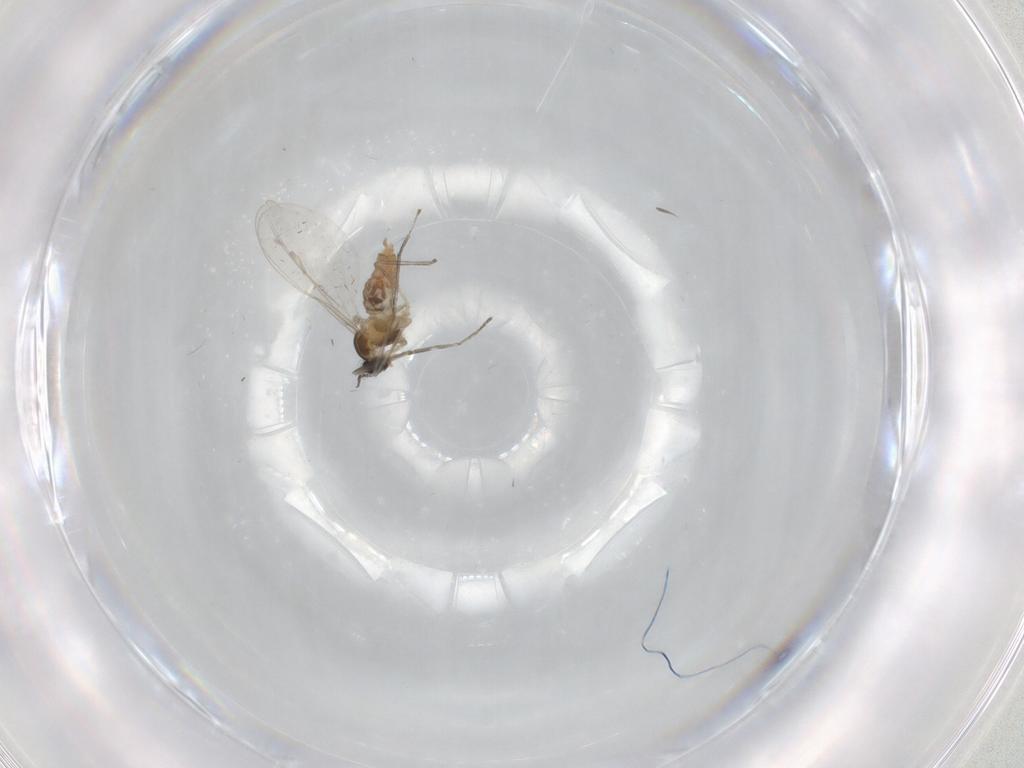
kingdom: Animalia
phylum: Arthropoda
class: Insecta
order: Diptera
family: Cecidomyiidae
